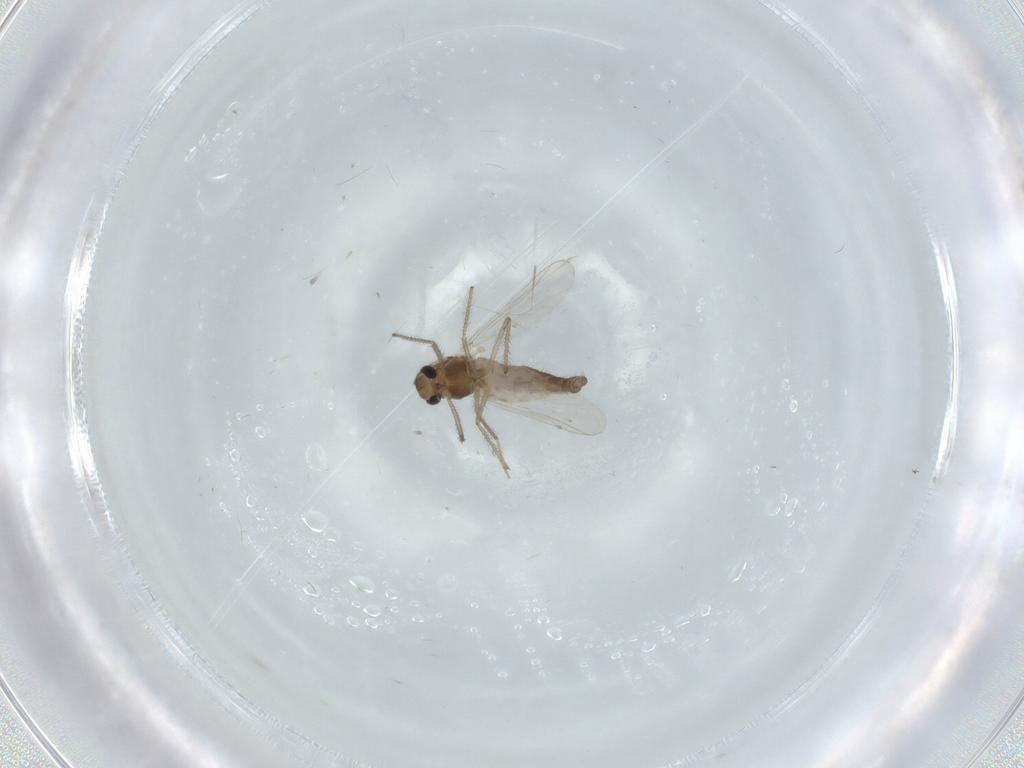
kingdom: Animalia
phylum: Arthropoda
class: Insecta
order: Diptera
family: Chironomidae
